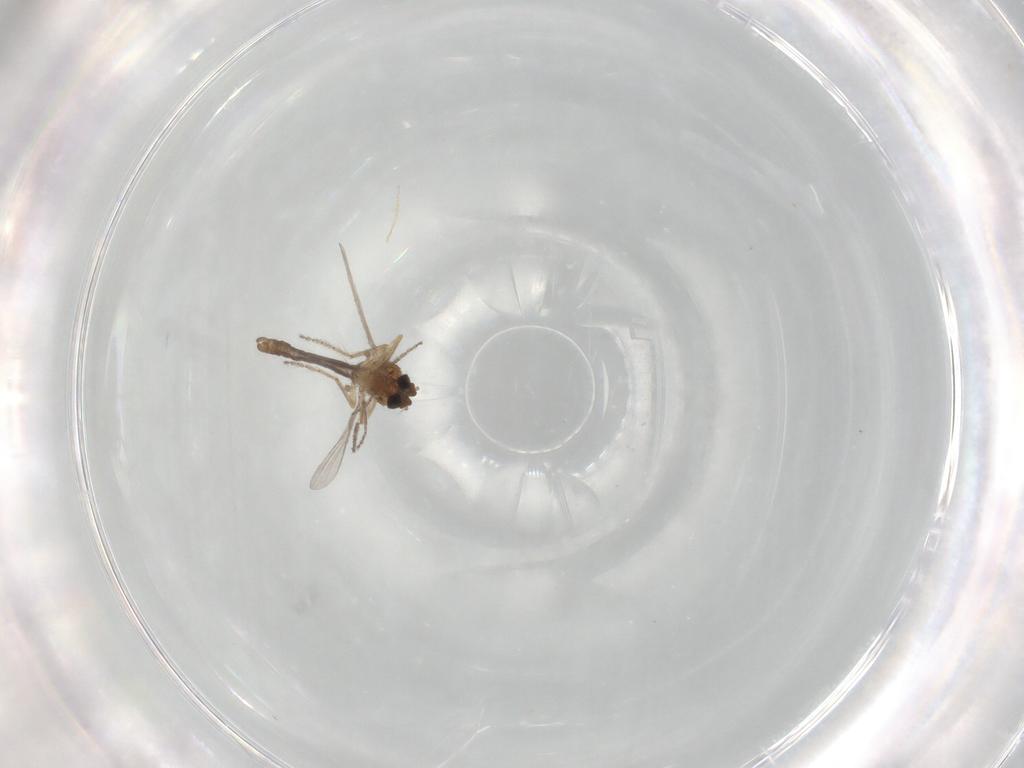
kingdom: Animalia
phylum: Arthropoda
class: Insecta
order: Diptera
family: Ceratopogonidae
